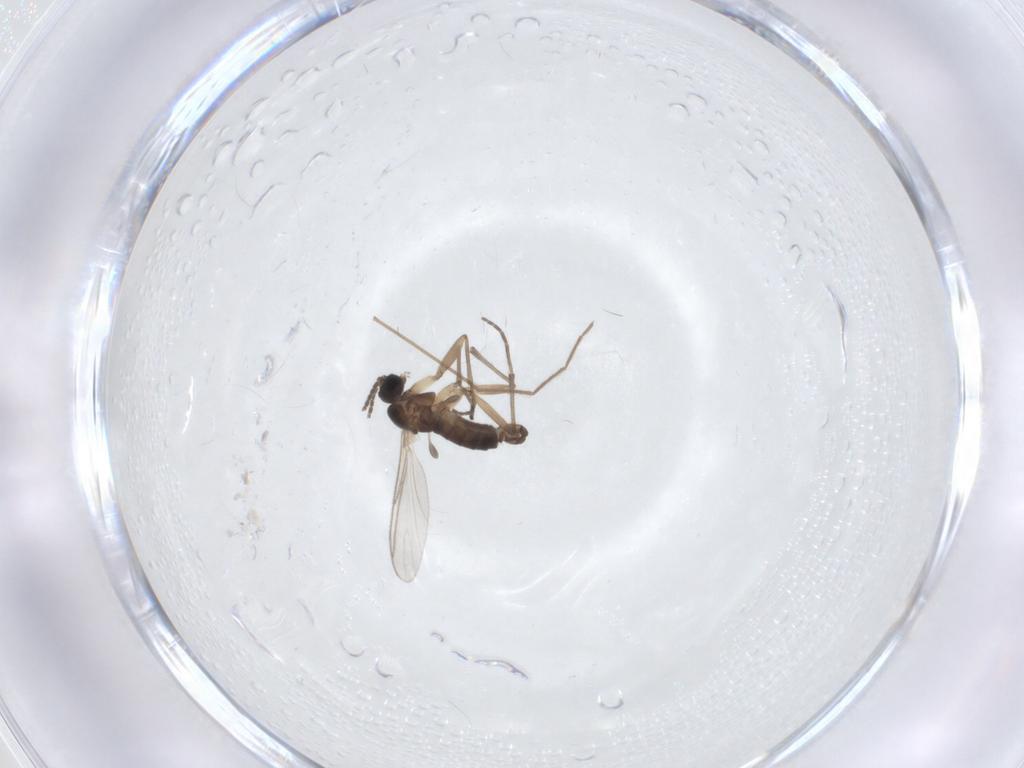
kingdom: Animalia
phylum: Arthropoda
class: Insecta
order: Diptera
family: Sciaridae
